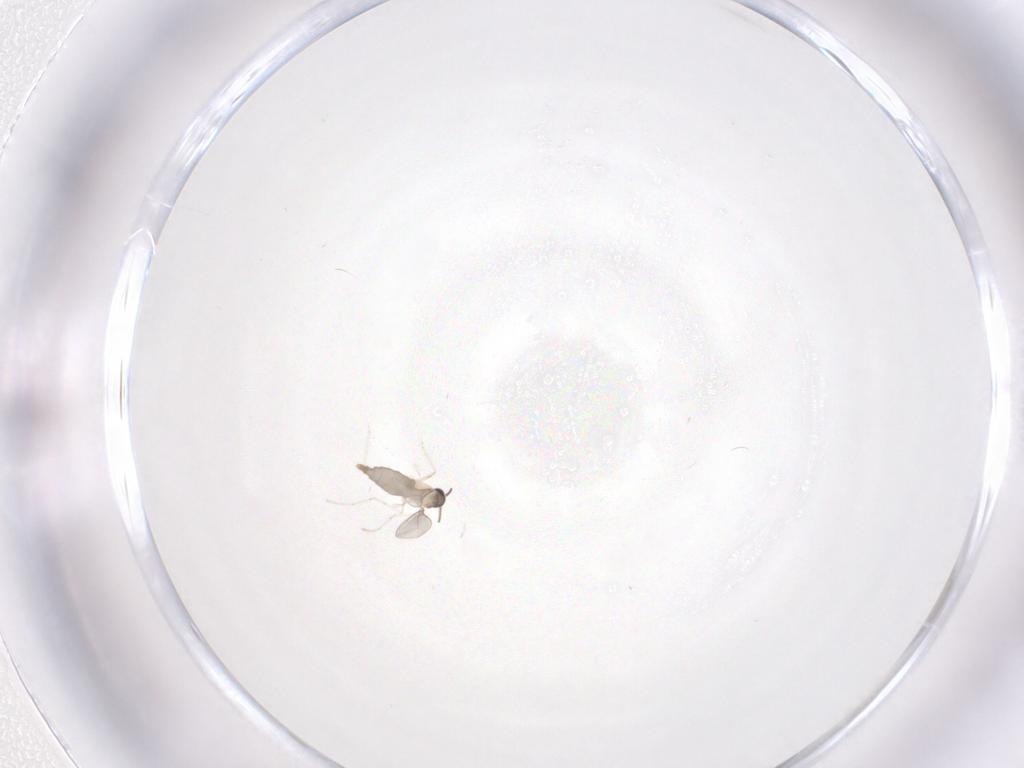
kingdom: Animalia
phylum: Arthropoda
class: Insecta
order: Diptera
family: Cecidomyiidae
